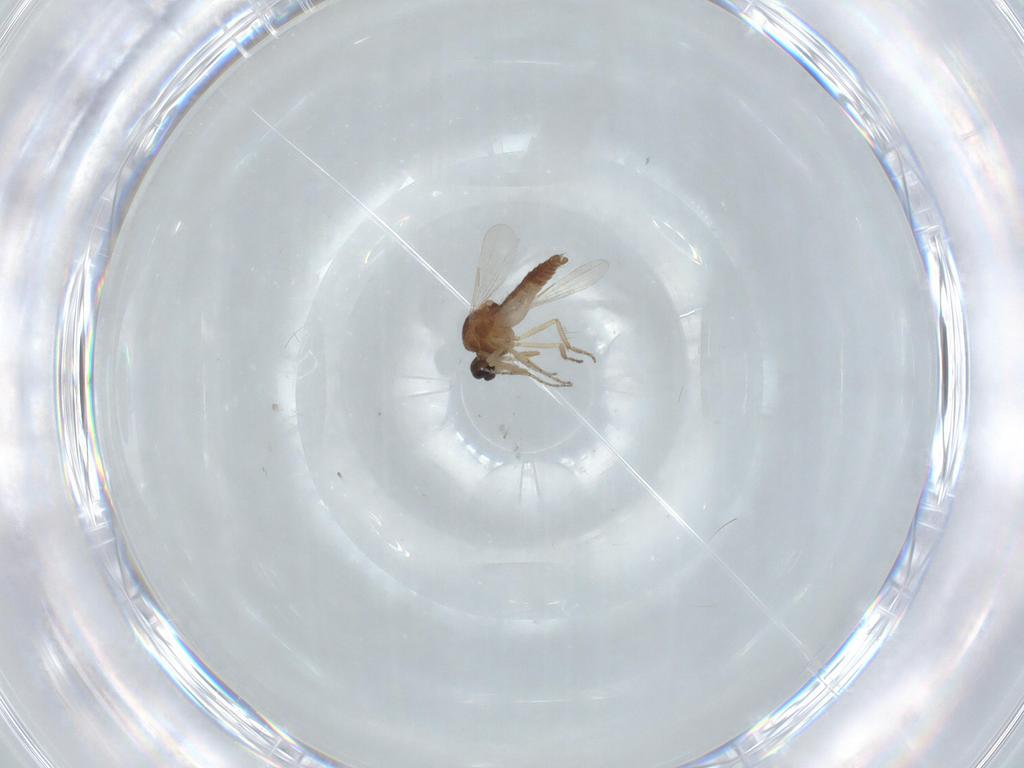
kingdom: Animalia
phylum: Arthropoda
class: Insecta
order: Diptera
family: Ceratopogonidae
